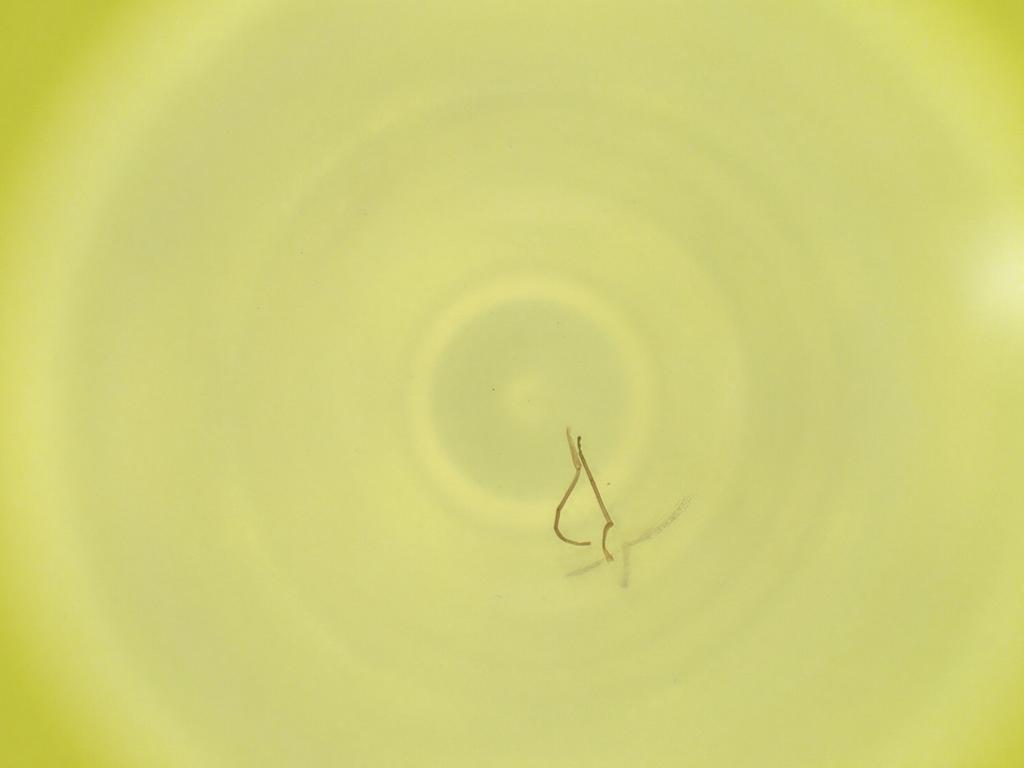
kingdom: Animalia
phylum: Arthropoda
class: Insecta
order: Diptera
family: Cecidomyiidae
